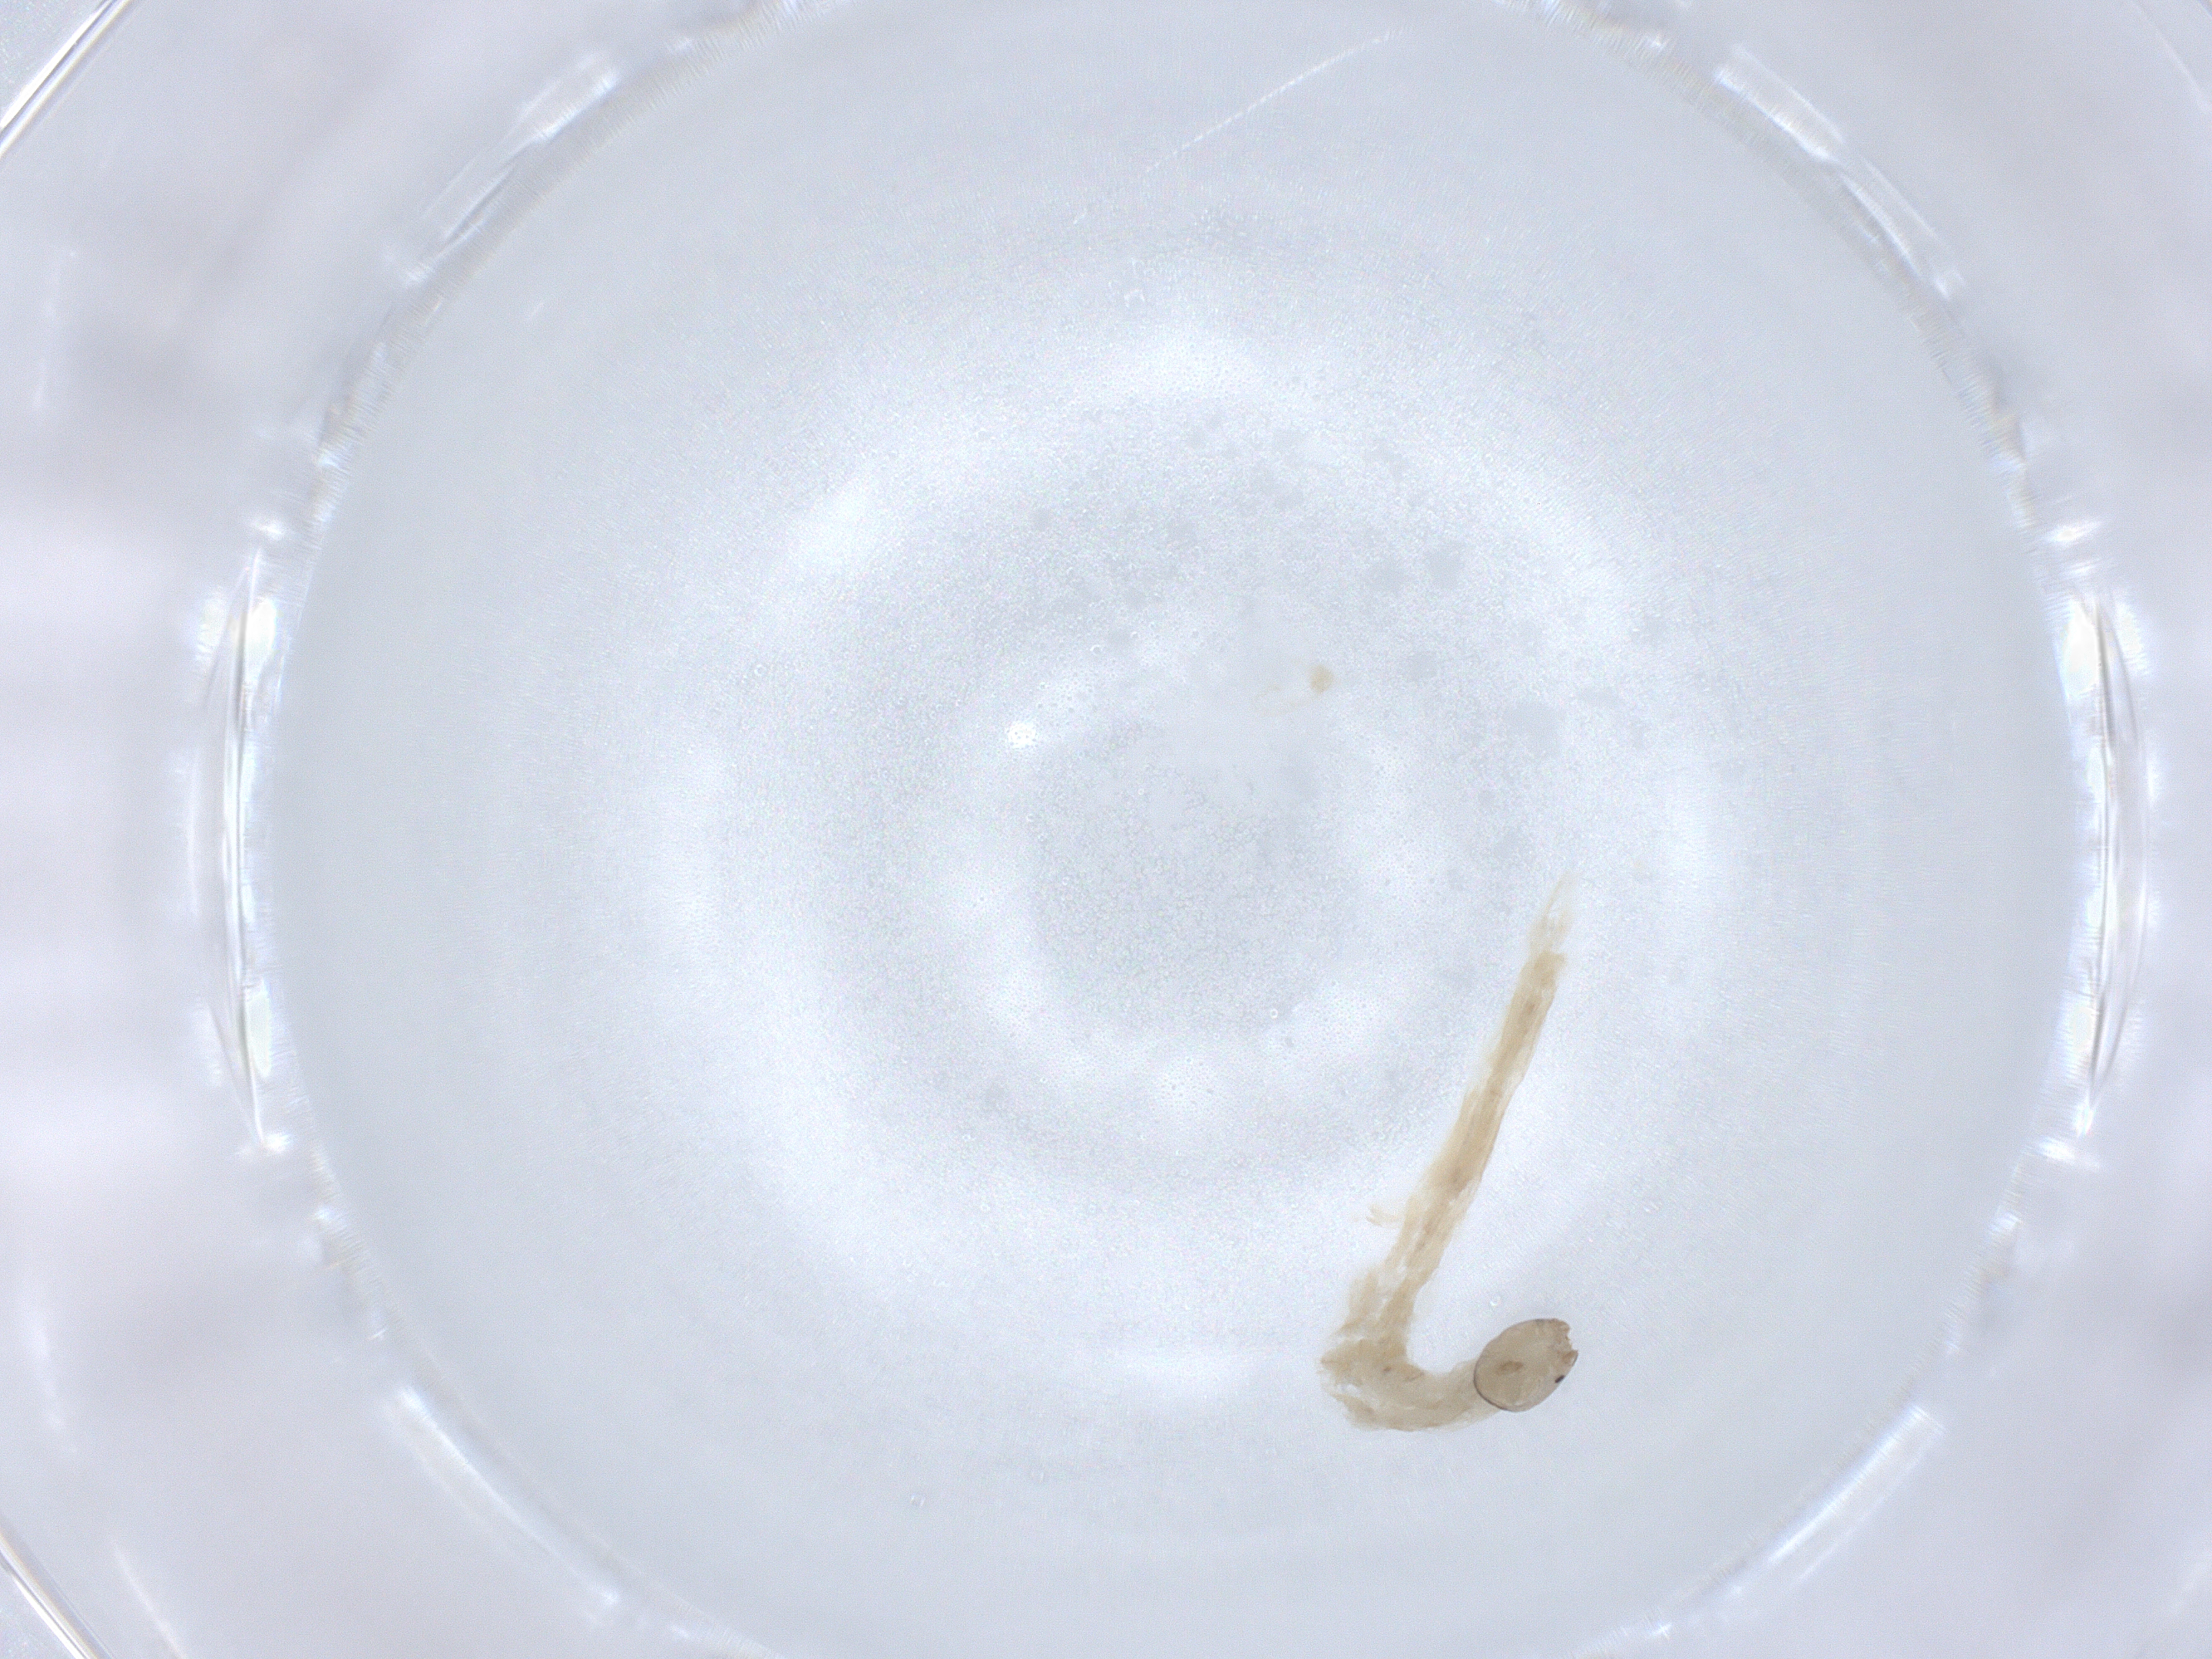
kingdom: Animalia
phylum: Arthropoda
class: Insecta
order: Diptera
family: Chironomidae
